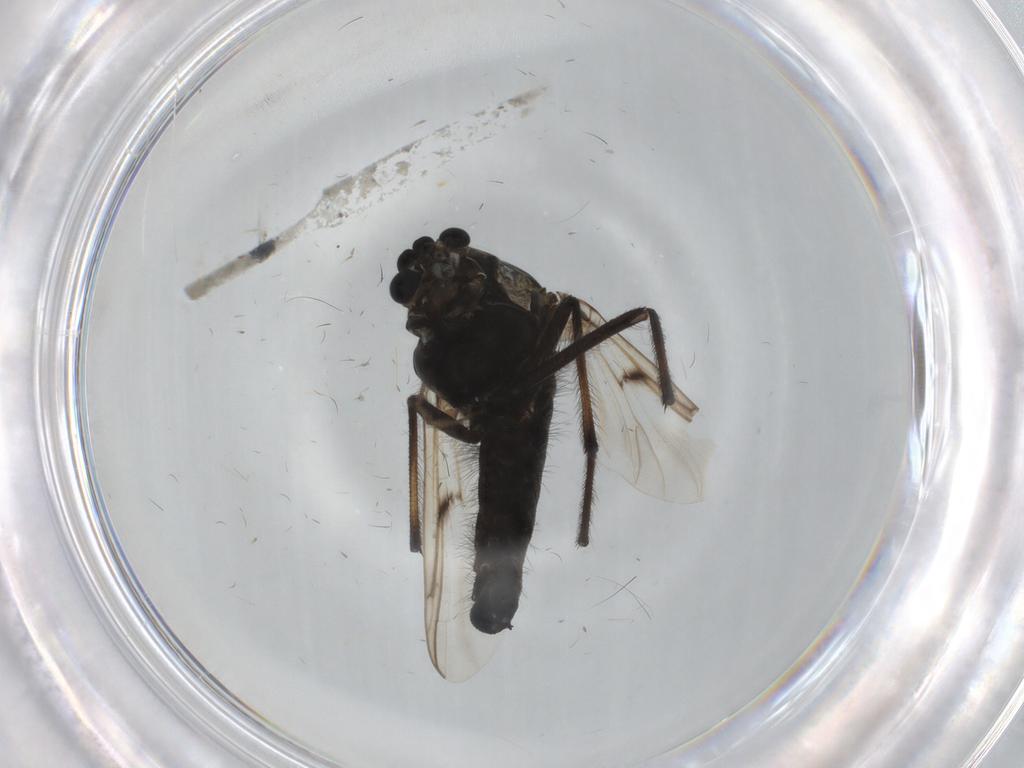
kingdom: Animalia
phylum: Arthropoda
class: Insecta
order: Diptera
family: Chironomidae
